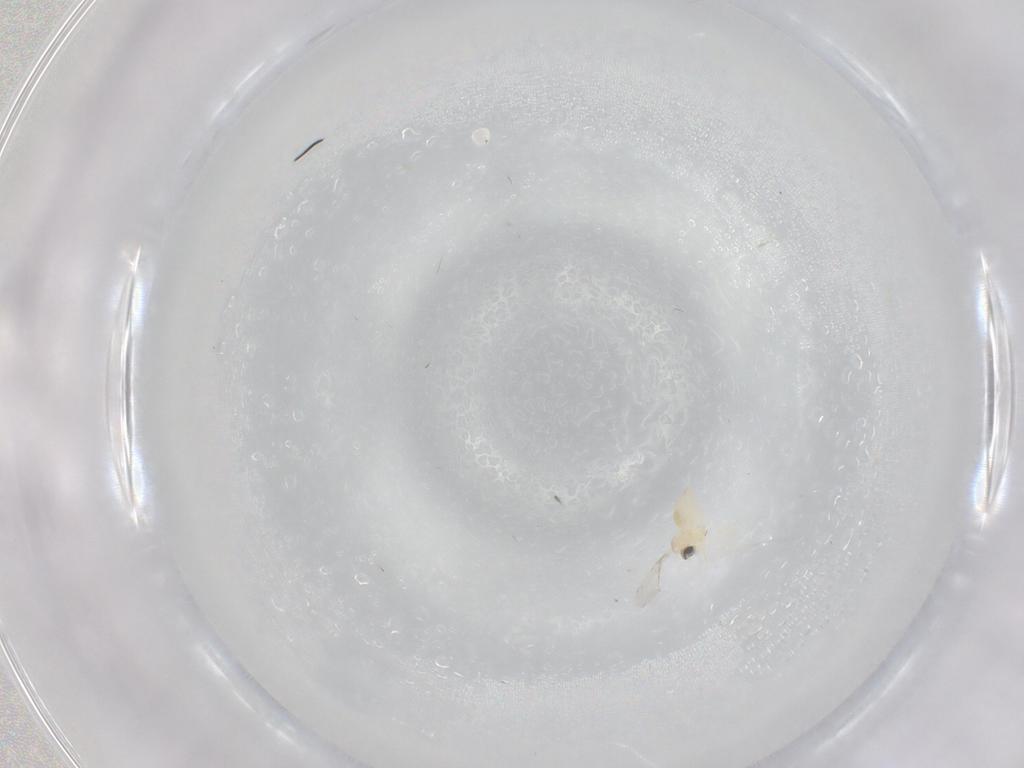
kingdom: Animalia
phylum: Arthropoda
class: Insecta
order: Diptera
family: Cecidomyiidae
